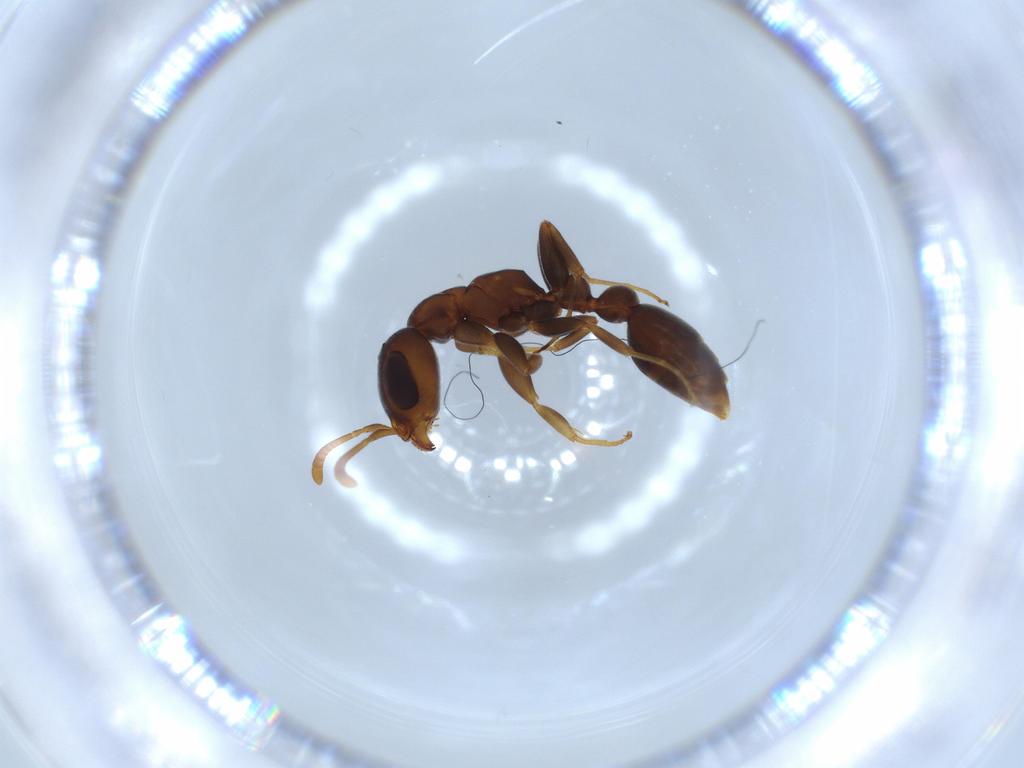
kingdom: Animalia
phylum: Arthropoda
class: Insecta
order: Hymenoptera
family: Formicidae
